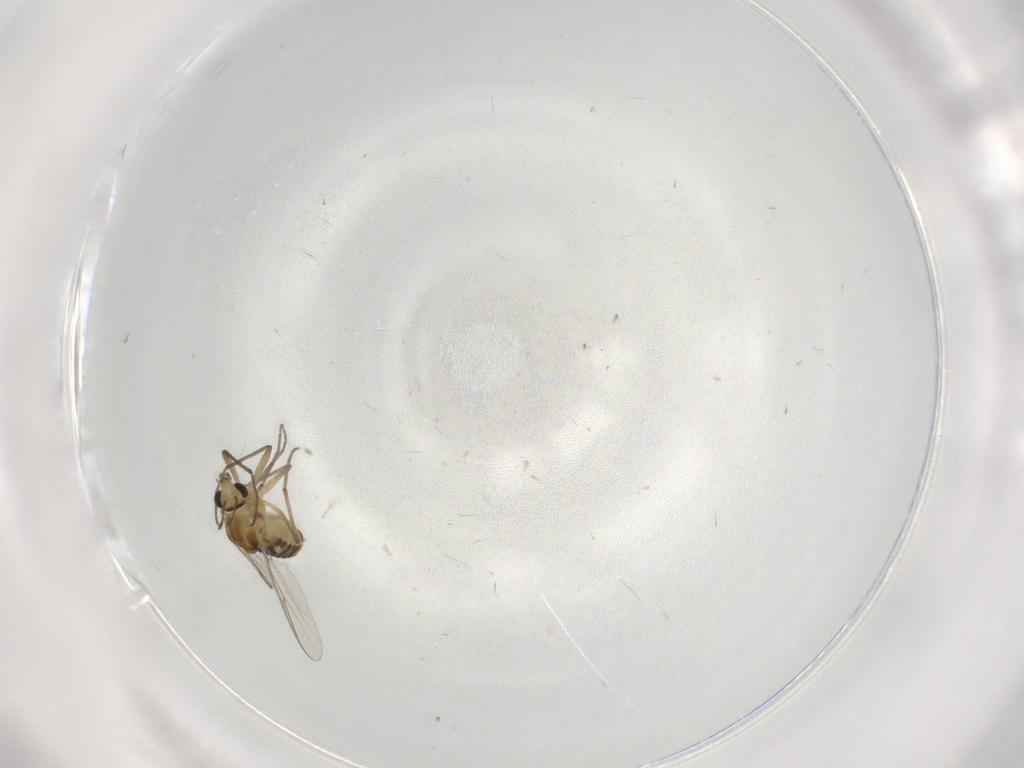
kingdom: Animalia
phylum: Arthropoda
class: Insecta
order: Diptera
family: Chironomidae
